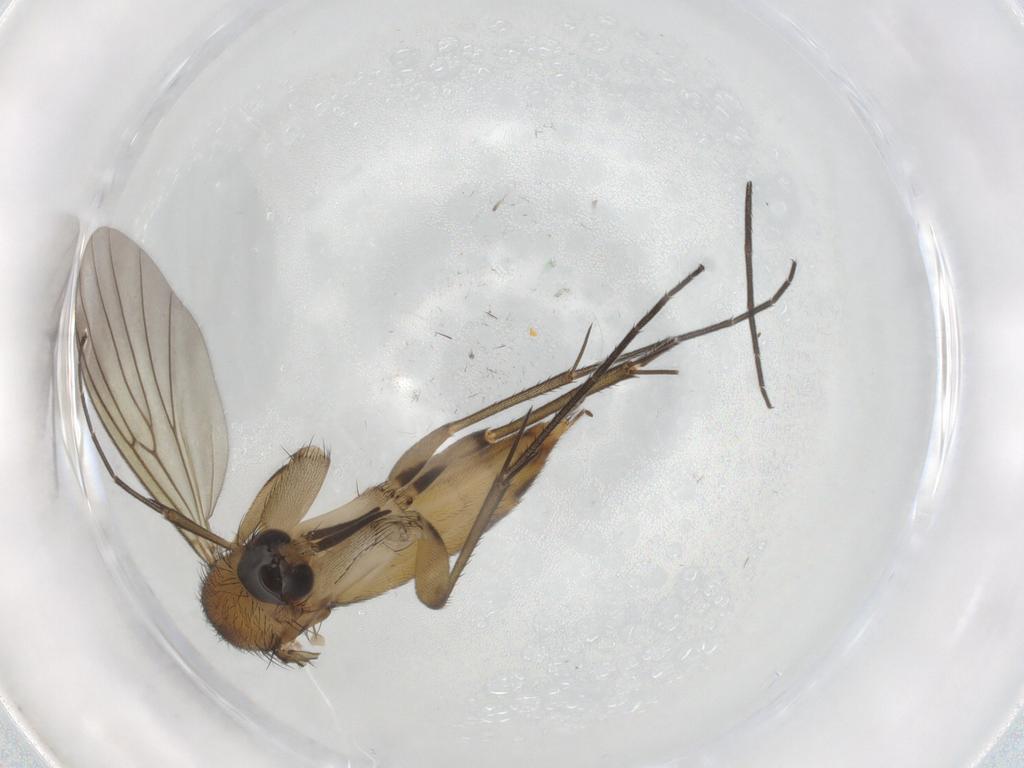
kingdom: Animalia
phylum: Arthropoda
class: Insecta
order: Diptera
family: Mycetophilidae
